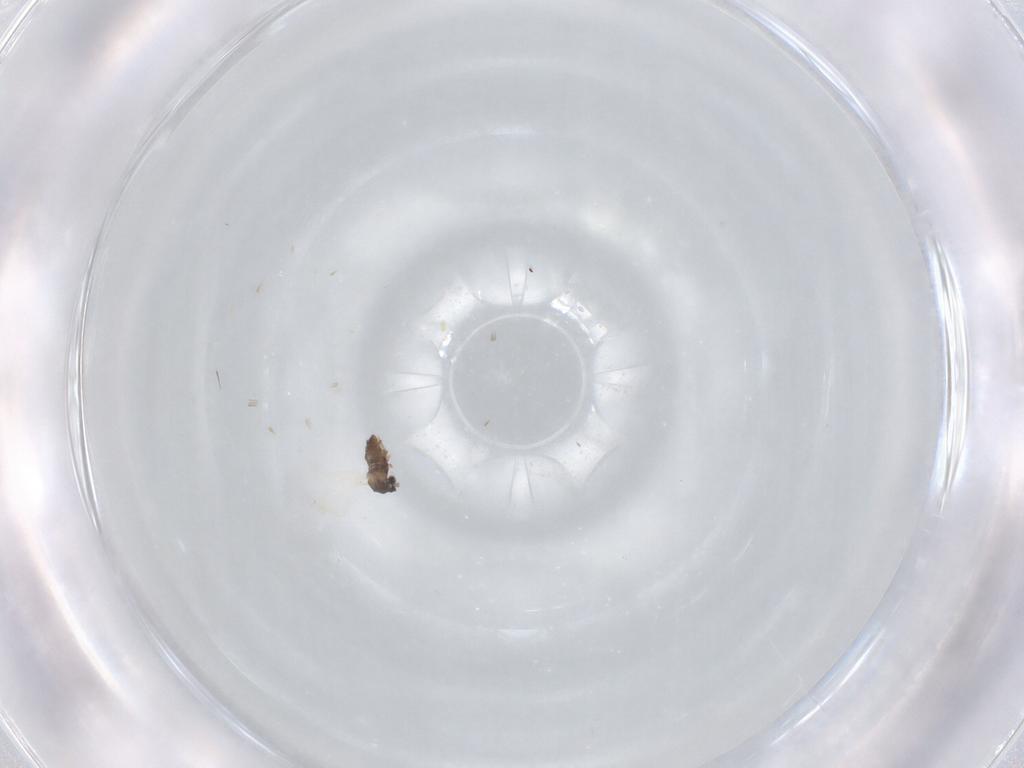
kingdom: Animalia
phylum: Arthropoda
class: Insecta
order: Diptera
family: Cecidomyiidae
